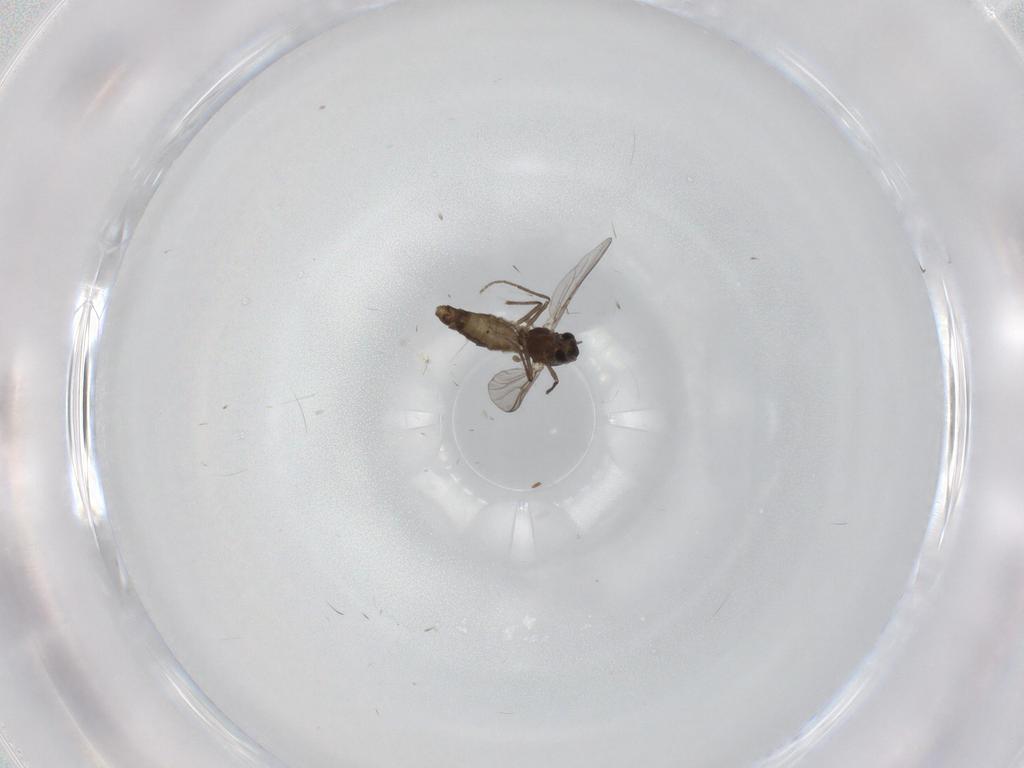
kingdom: Animalia
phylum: Arthropoda
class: Insecta
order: Diptera
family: Chironomidae
